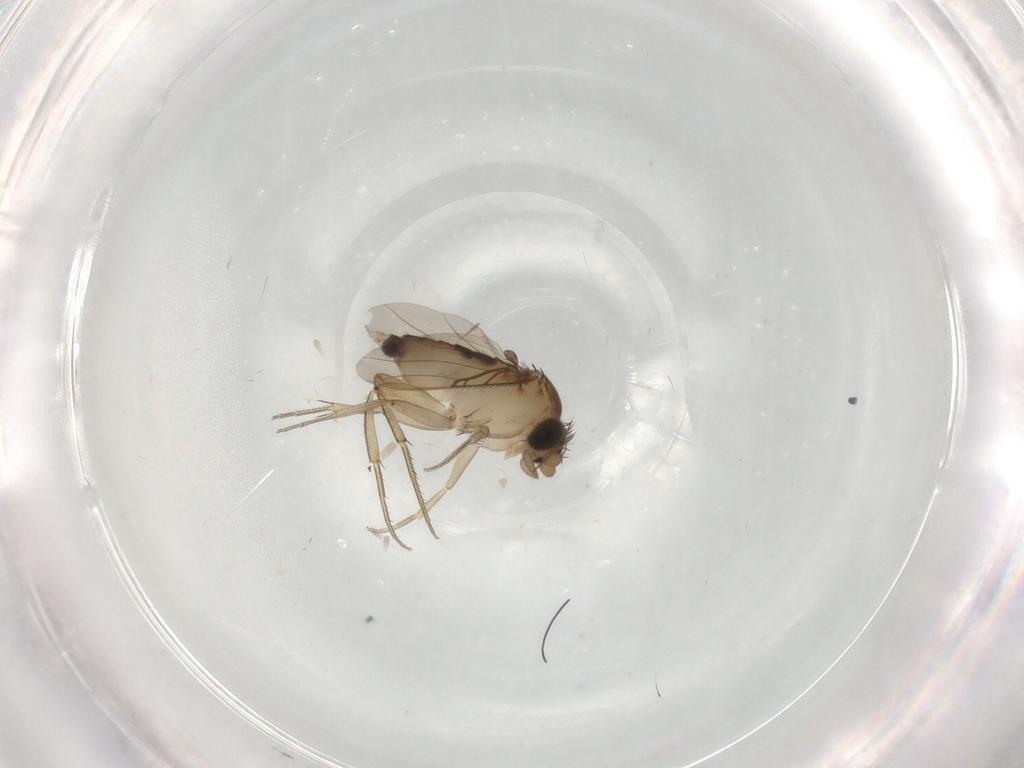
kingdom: Animalia
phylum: Arthropoda
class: Insecta
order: Diptera
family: Phoridae
